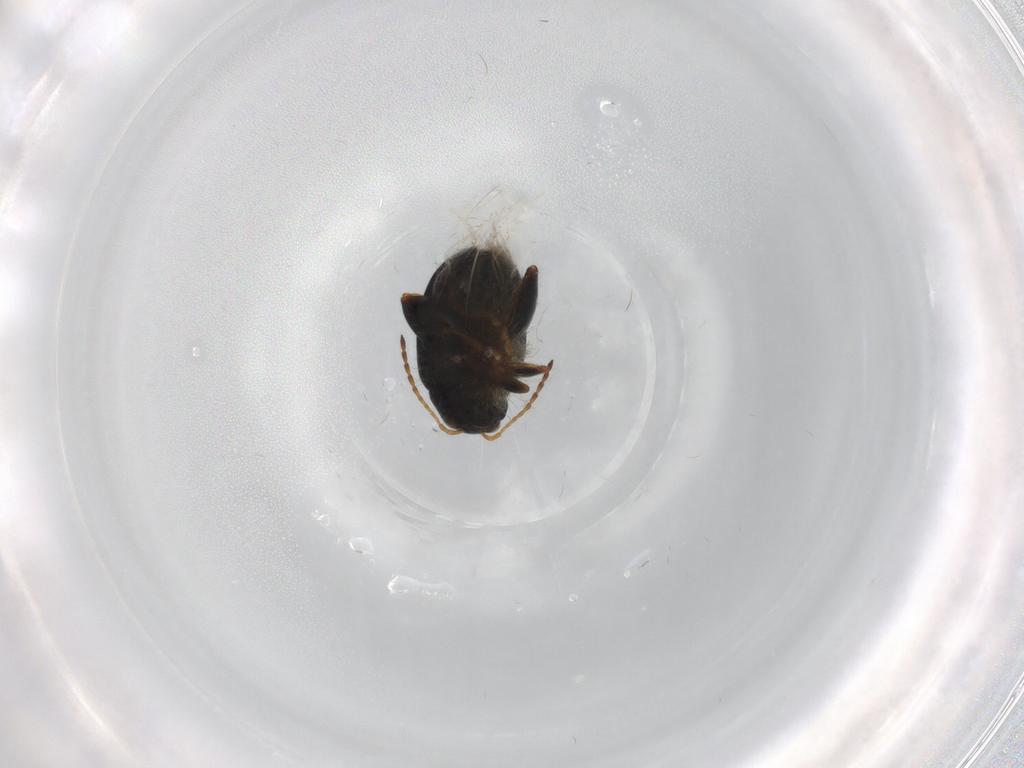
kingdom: Animalia
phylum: Arthropoda
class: Insecta
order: Coleoptera
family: Chrysomelidae
